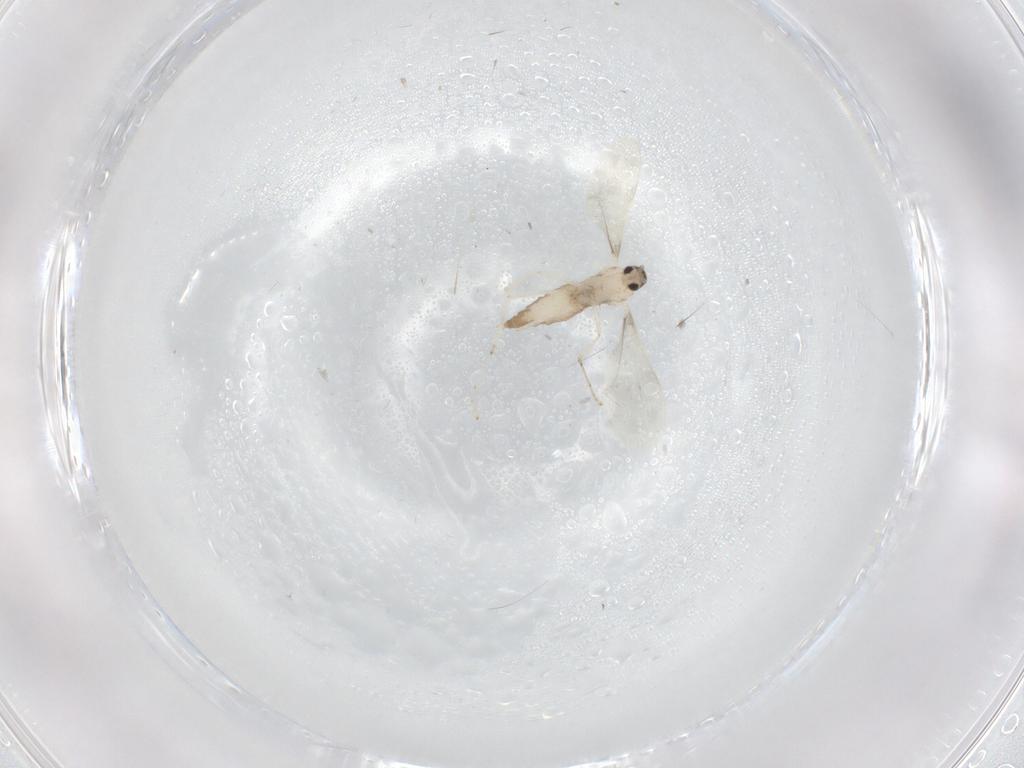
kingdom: Animalia
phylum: Arthropoda
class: Insecta
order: Diptera
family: Cecidomyiidae
